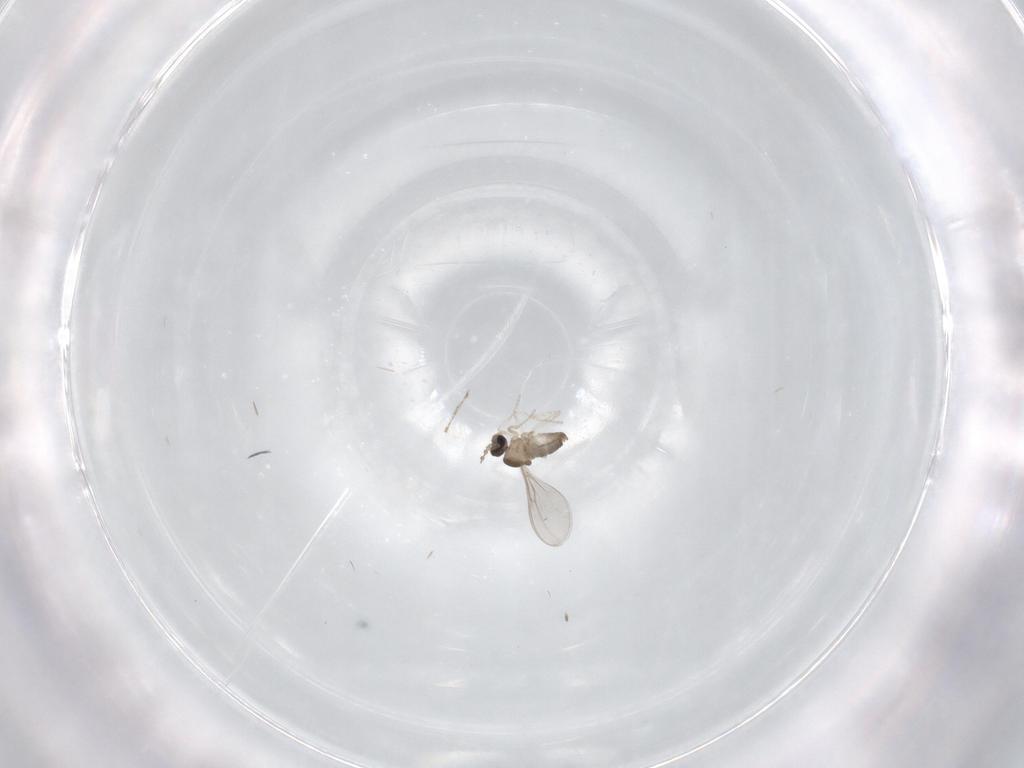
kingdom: Animalia
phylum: Arthropoda
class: Insecta
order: Diptera
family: Cecidomyiidae
